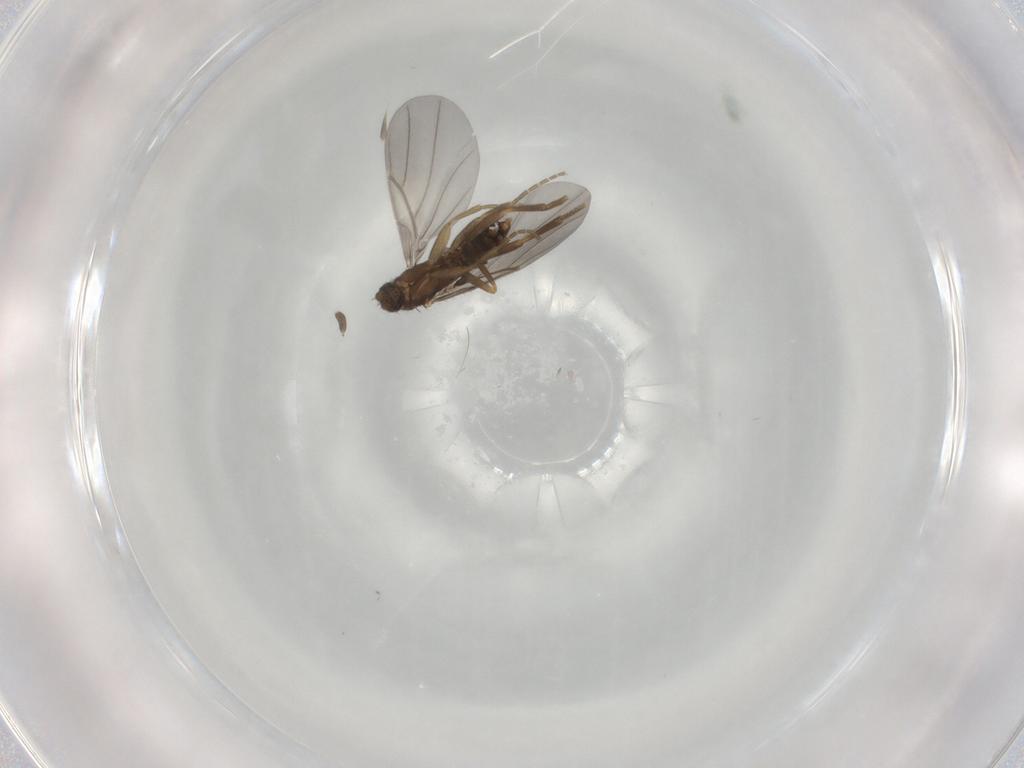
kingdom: Animalia
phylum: Arthropoda
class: Insecta
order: Diptera
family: Phoridae
